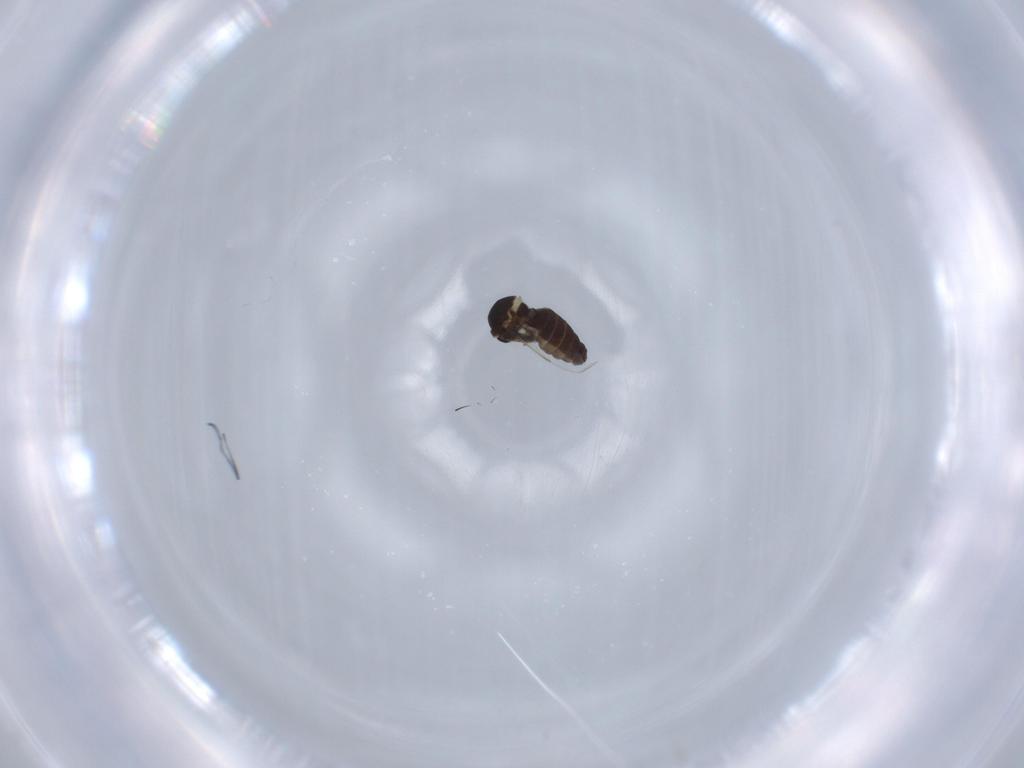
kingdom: Animalia
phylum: Arthropoda
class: Insecta
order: Diptera
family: Ceratopogonidae
